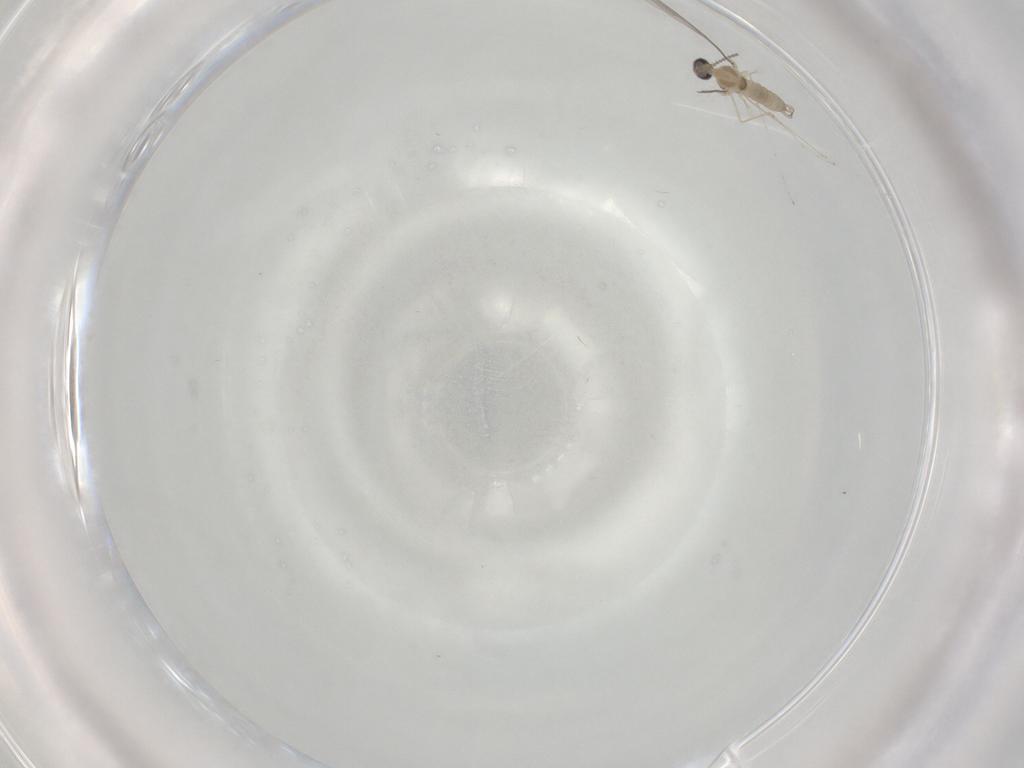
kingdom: Animalia
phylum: Arthropoda
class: Insecta
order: Diptera
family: Cecidomyiidae
